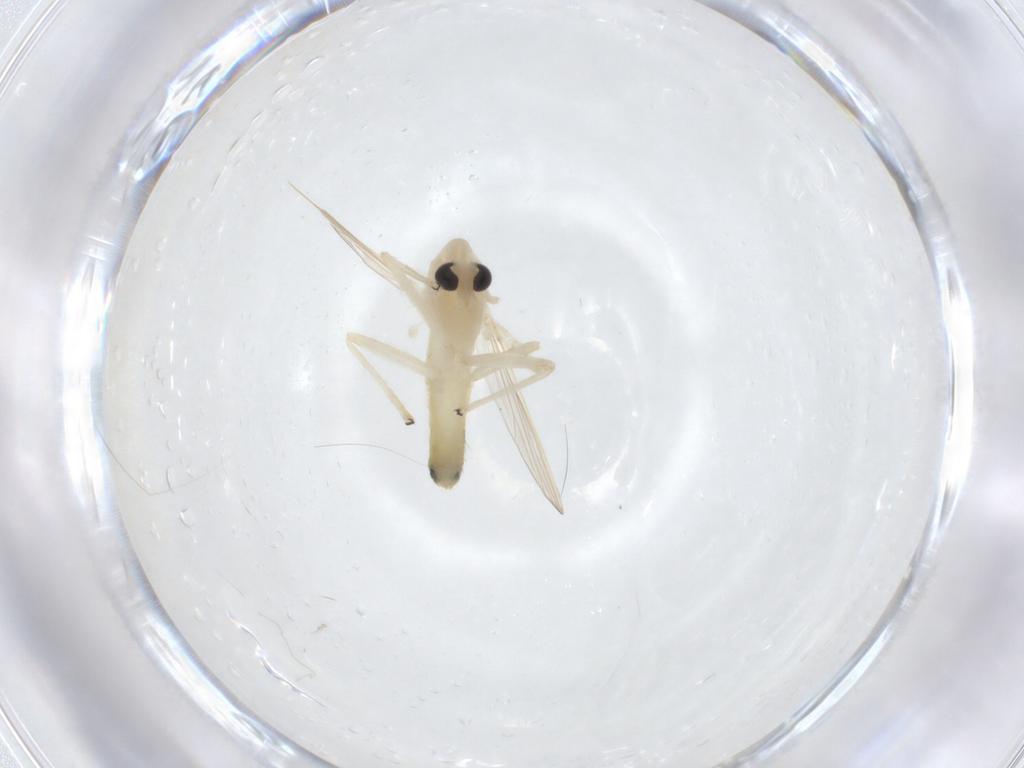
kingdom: Animalia
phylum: Arthropoda
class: Insecta
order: Diptera
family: Chironomidae
